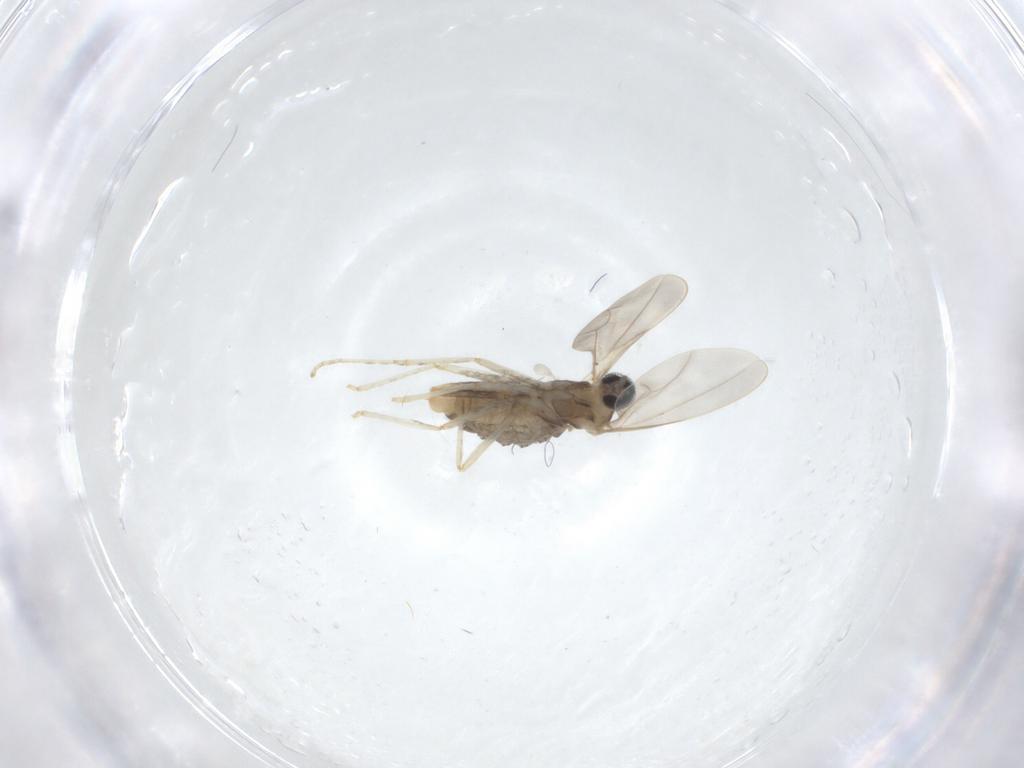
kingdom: Animalia
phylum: Arthropoda
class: Insecta
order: Diptera
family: Cecidomyiidae
